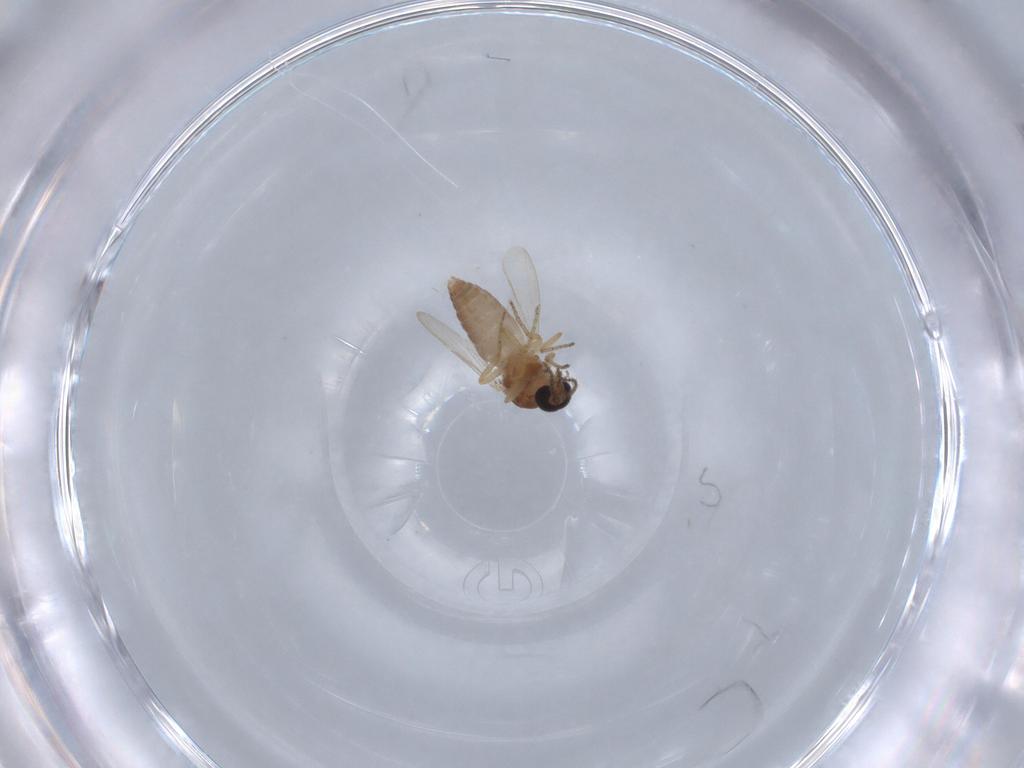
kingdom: Animalia
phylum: Arthropoda
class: Insecta
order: Diptera
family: Ceratopogonidae
